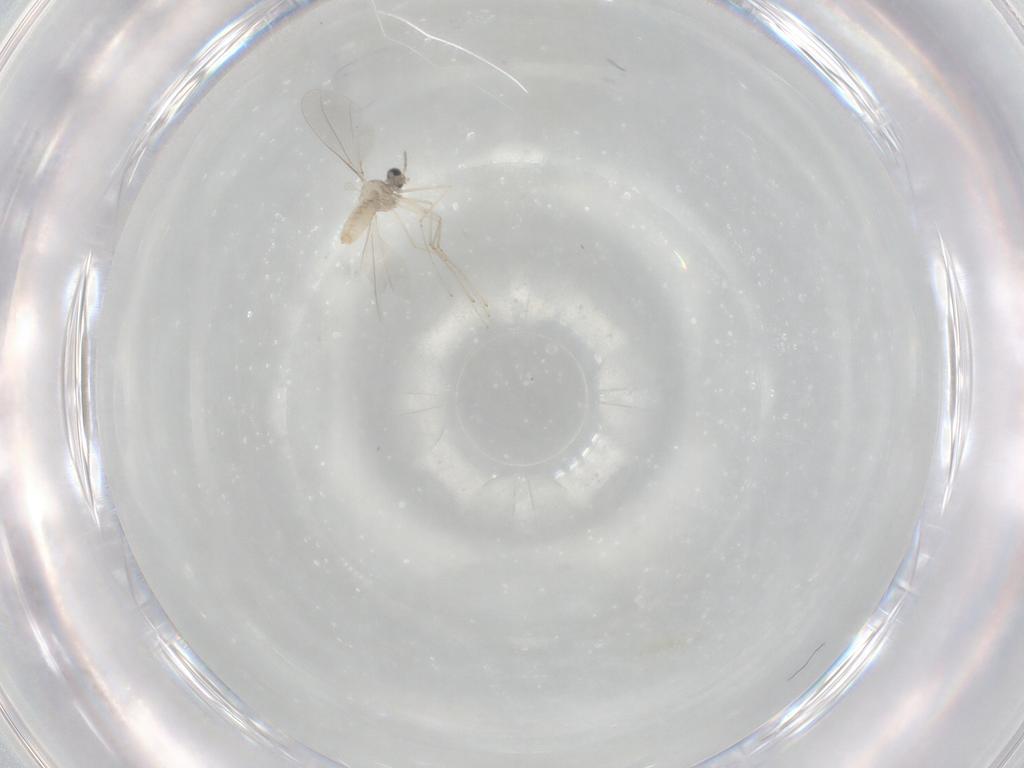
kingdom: Animalia
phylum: Arthropoda
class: Insecta
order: Diptera
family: Cecidomyiidae
